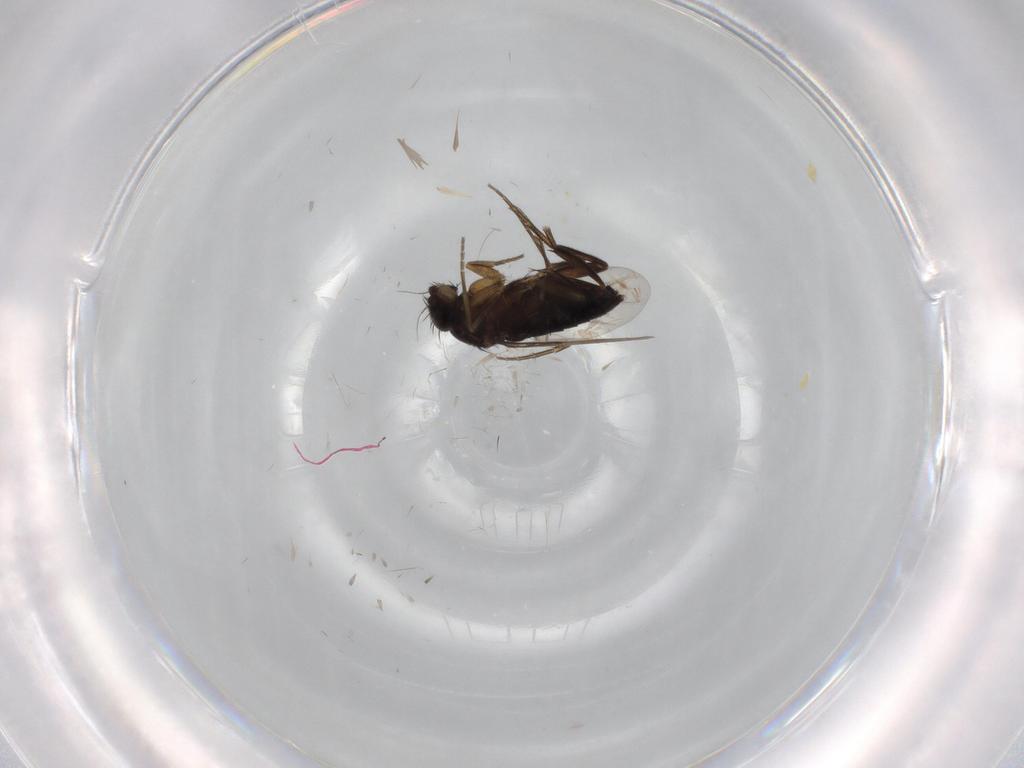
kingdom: Animalia
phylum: Arthropoda
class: Insecta
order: Diptera
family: Phoridae
